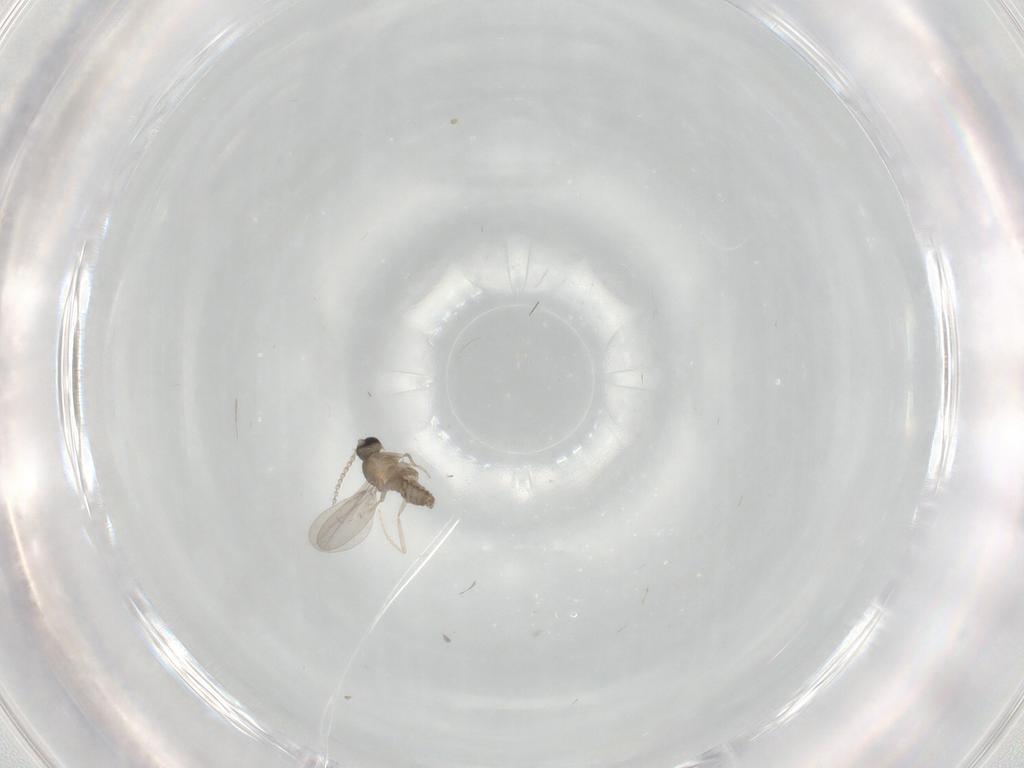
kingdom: Animalia
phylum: Arthropoda
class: Insecta
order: Diptera
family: Cecidomyiidae
